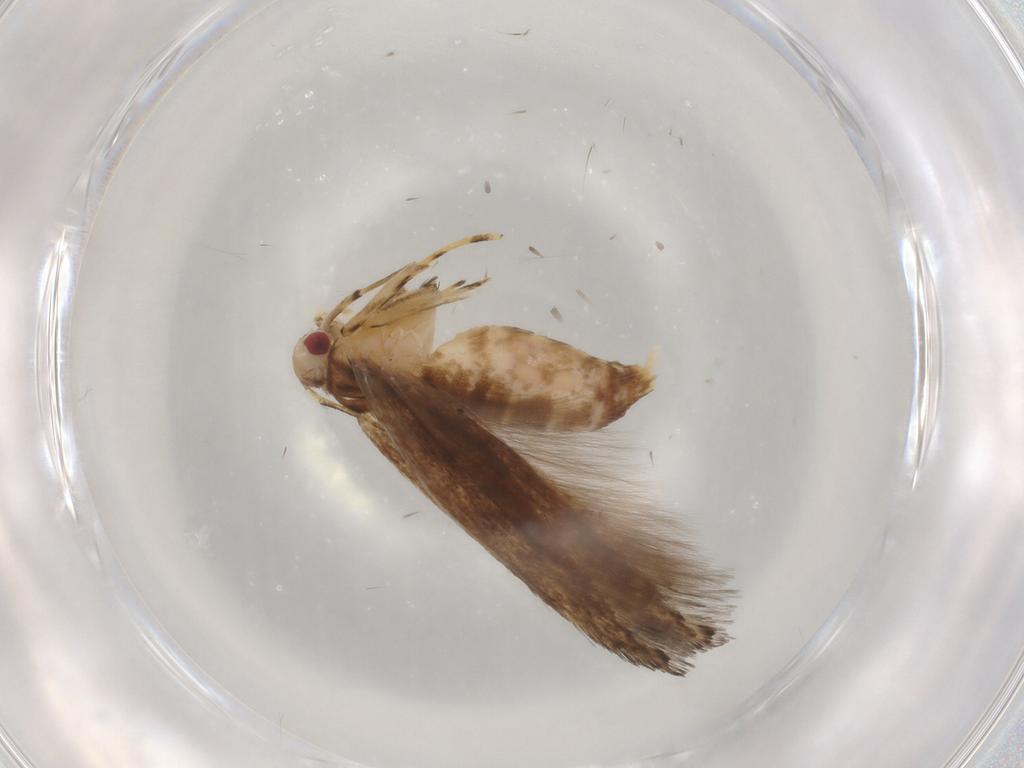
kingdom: Animalia
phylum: Arthropoda
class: Insecta
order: Lepidoptera
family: Cosmopterigidae
